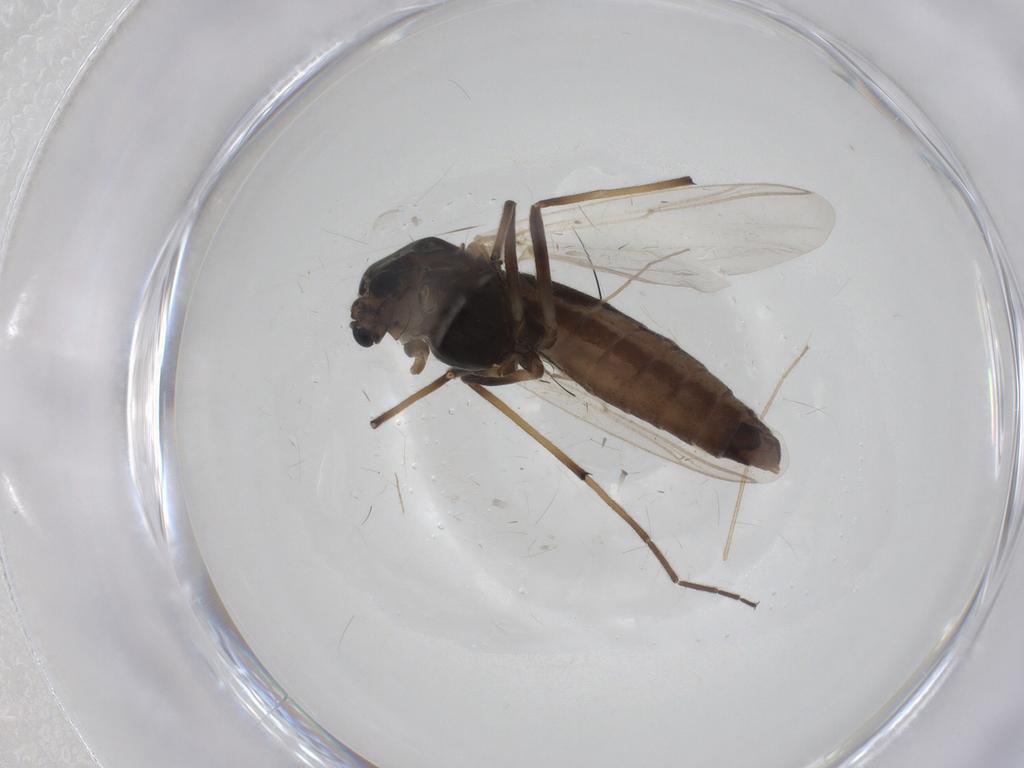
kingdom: Animalia
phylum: Arthropoda
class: Insecta
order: Diptera
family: Chironomidae
